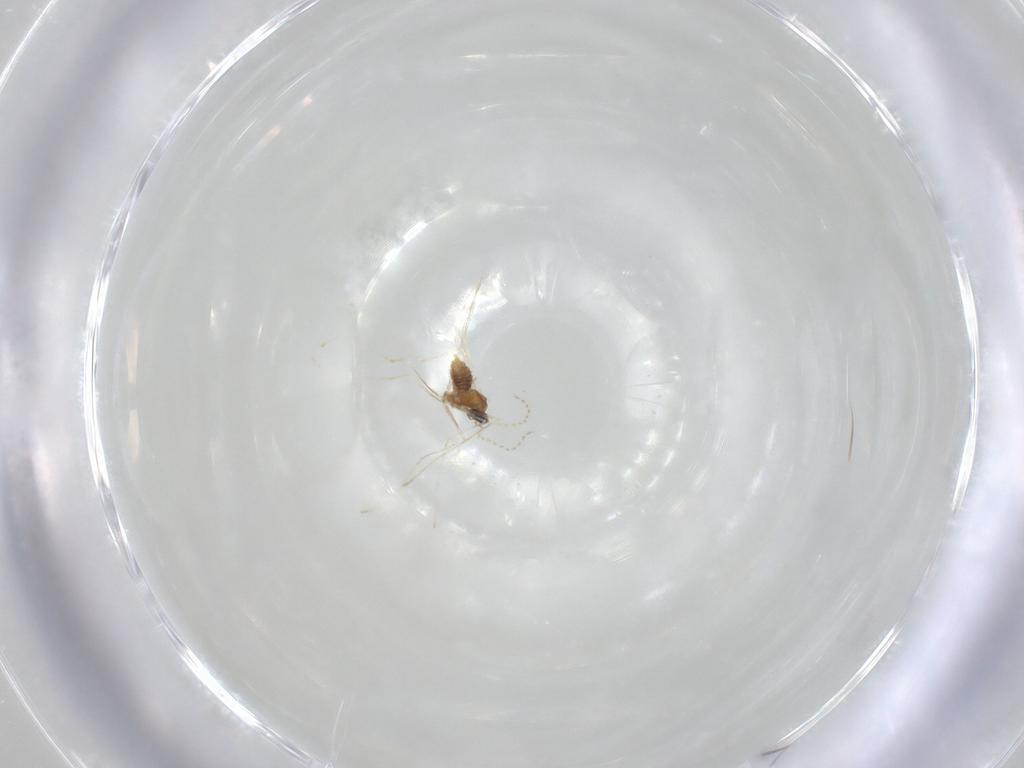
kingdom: Animalia
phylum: Arthropoda
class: Insecta
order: Diptera
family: Cecidomyiidae
